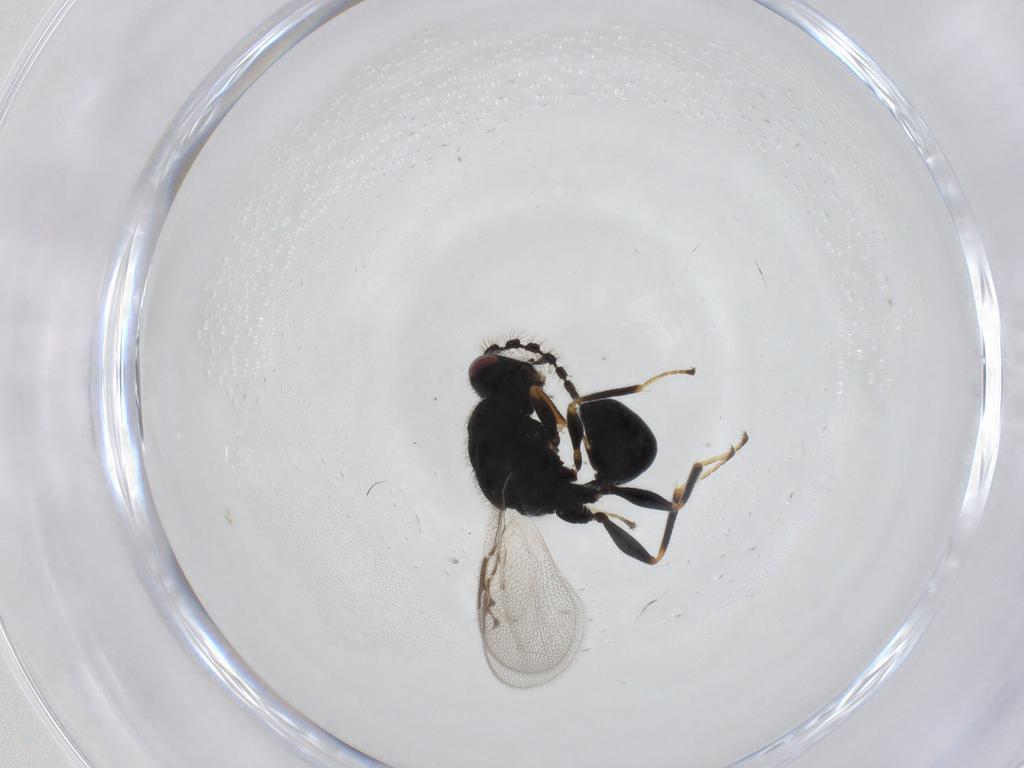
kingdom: Animalia
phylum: Arthropoda
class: Insecta
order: Hymenoptera
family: Eurytomidae
